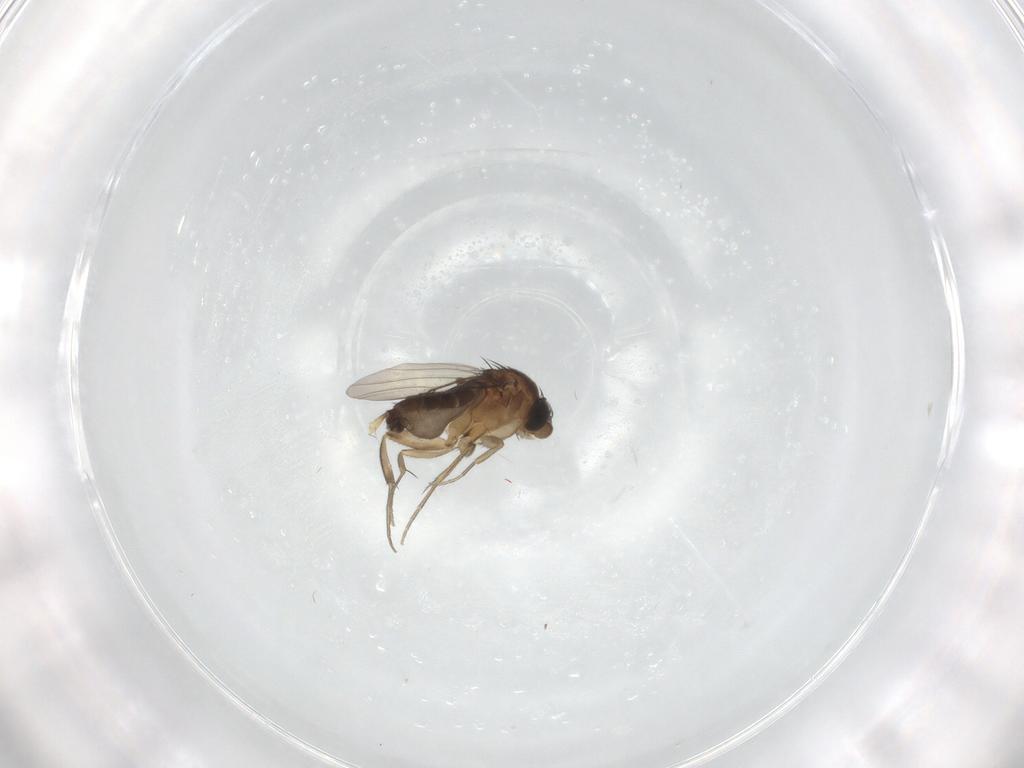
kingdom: Animalia
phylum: Arthropoda
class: Insecta
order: Diptera
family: Phoridae
